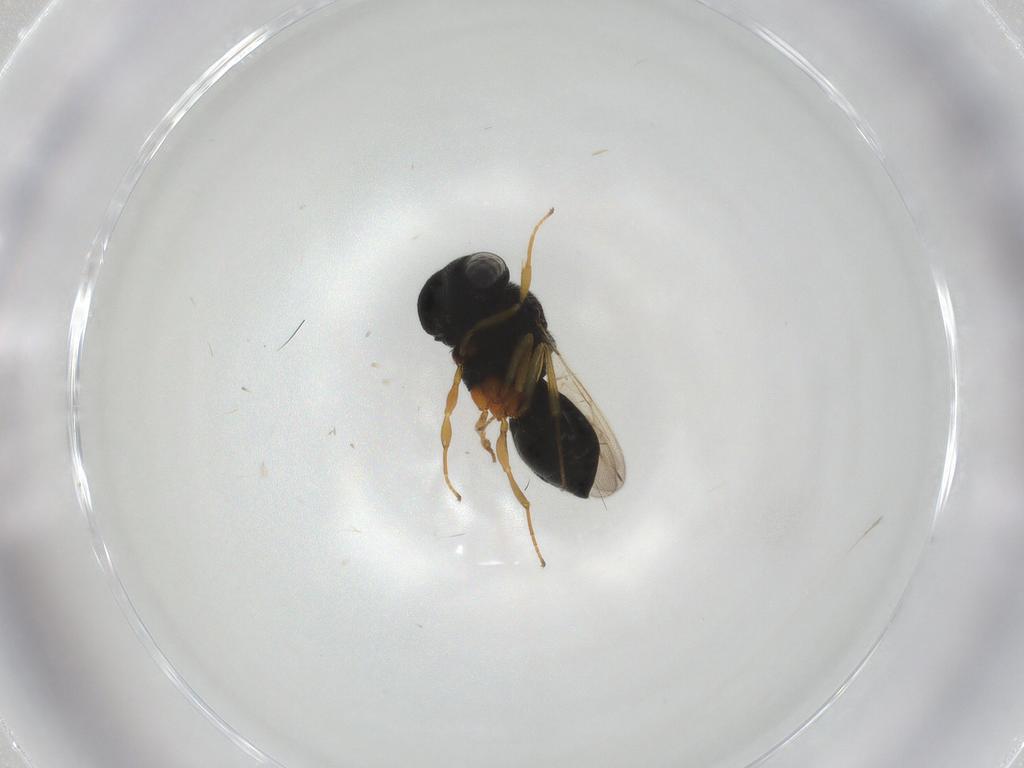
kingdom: Animalia
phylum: Arthropoda
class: Insecta
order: Hymenoptera
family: Scelionidae
